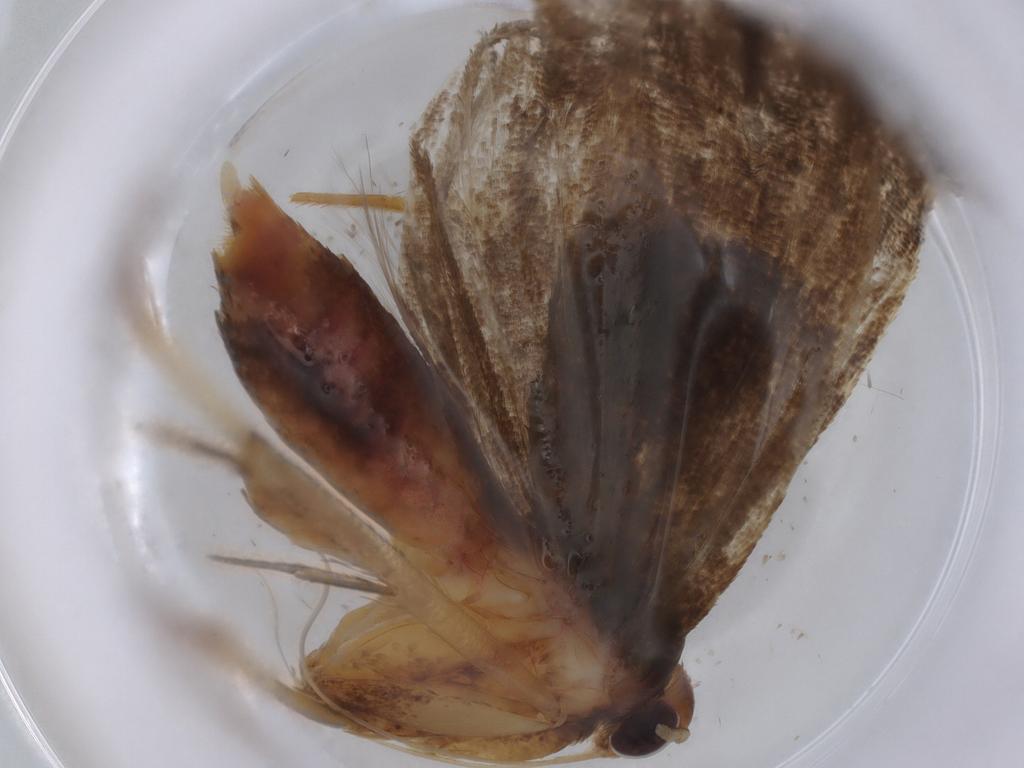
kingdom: Animalia
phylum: Arthropoda
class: Insecta
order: Lepidoptera
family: Lecithoceridae
